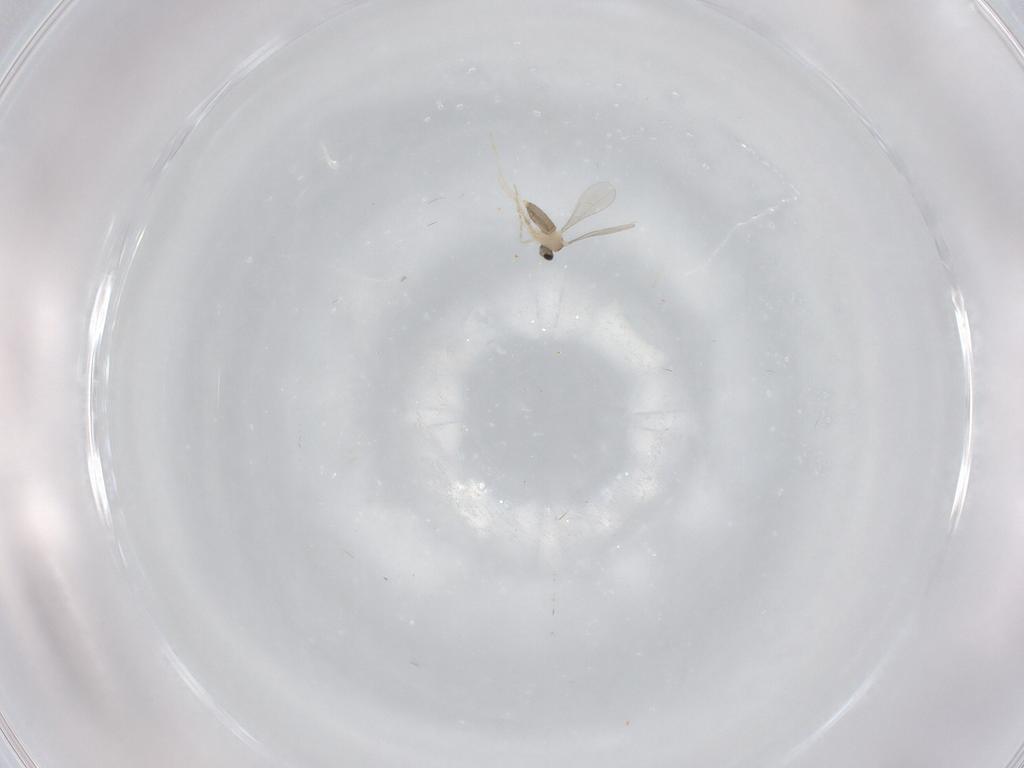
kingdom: Animalia
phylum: Arthropoda
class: Insecta
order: Diptera
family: Cecidomyiidae
